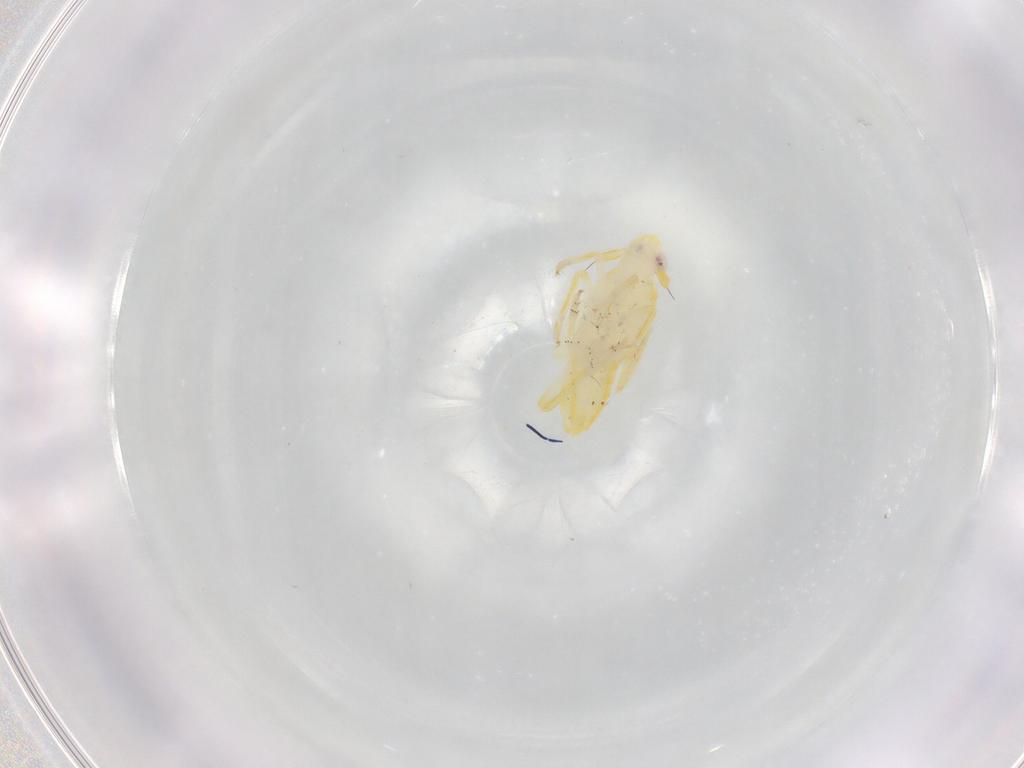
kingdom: Animalia
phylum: Arthropoda
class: Insecta
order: Hemiptera
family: Delphacidae
